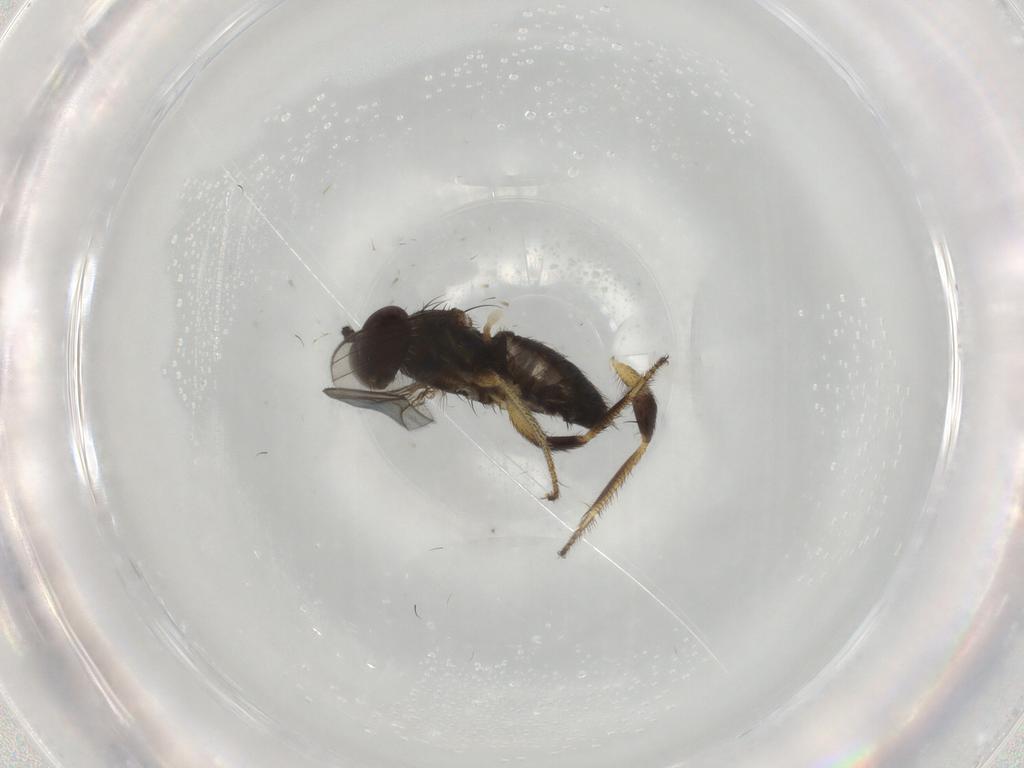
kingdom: Animalia
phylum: Arthropoda
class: Insecta
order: Diptera
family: Dolichopodidae
